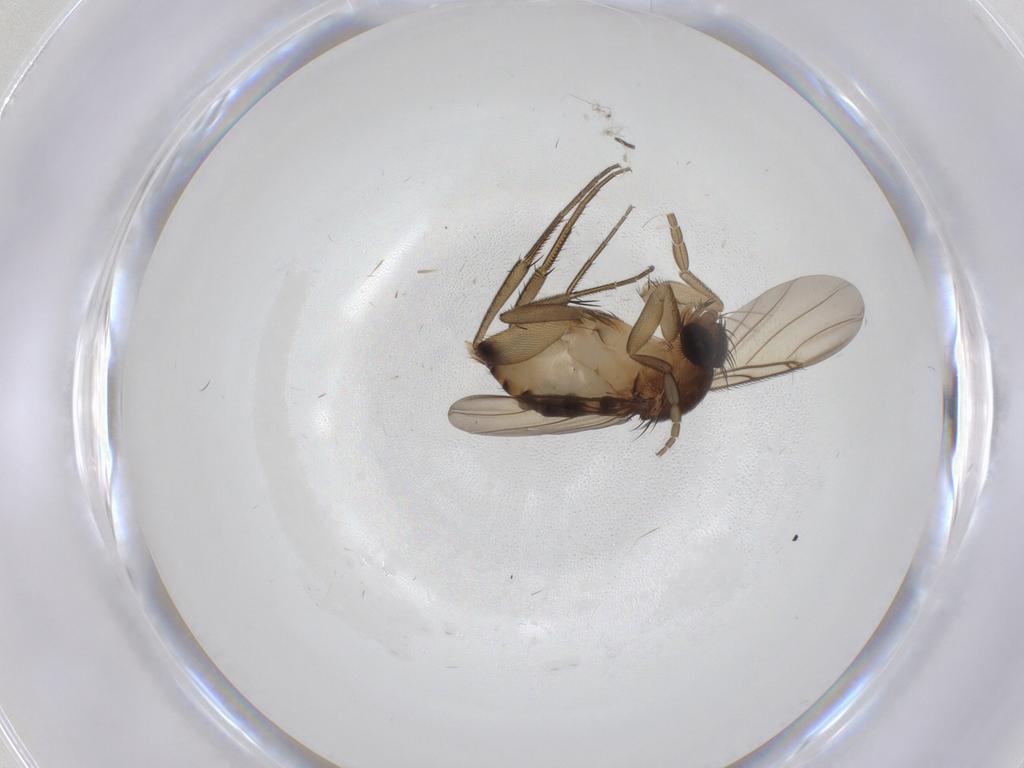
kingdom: Animalia
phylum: Arthropoda
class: Insecta
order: Diptera
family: Phoridae
